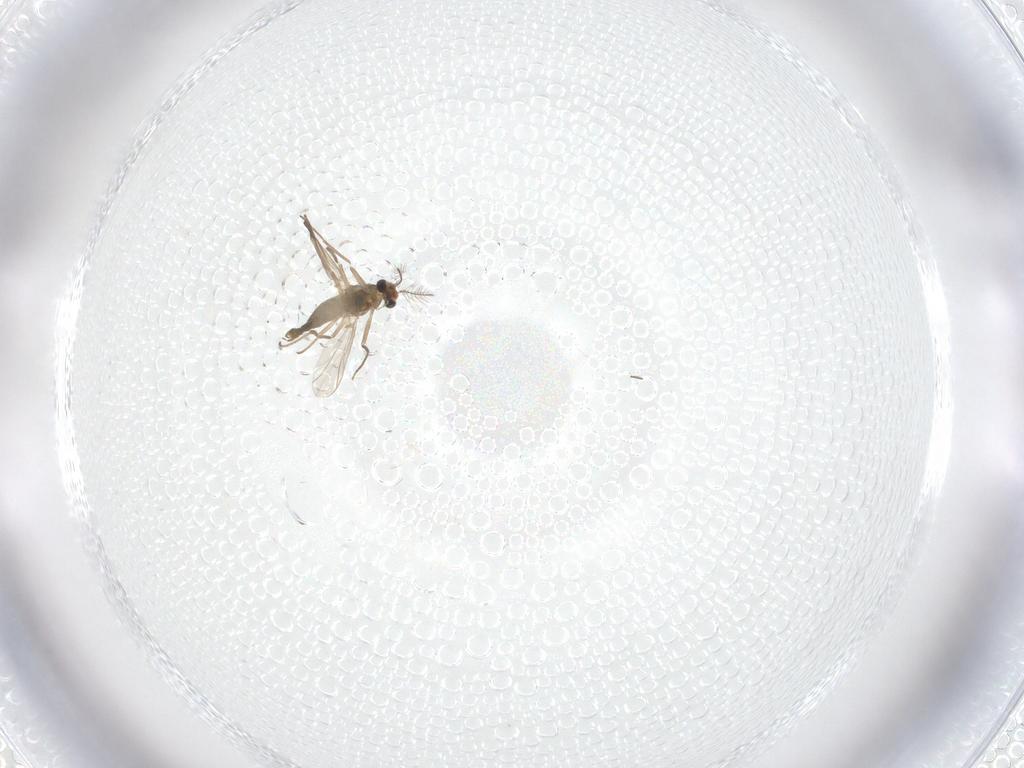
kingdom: Animalia
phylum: Arthropoda
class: Insecta
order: Diptera
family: Chironomidae
